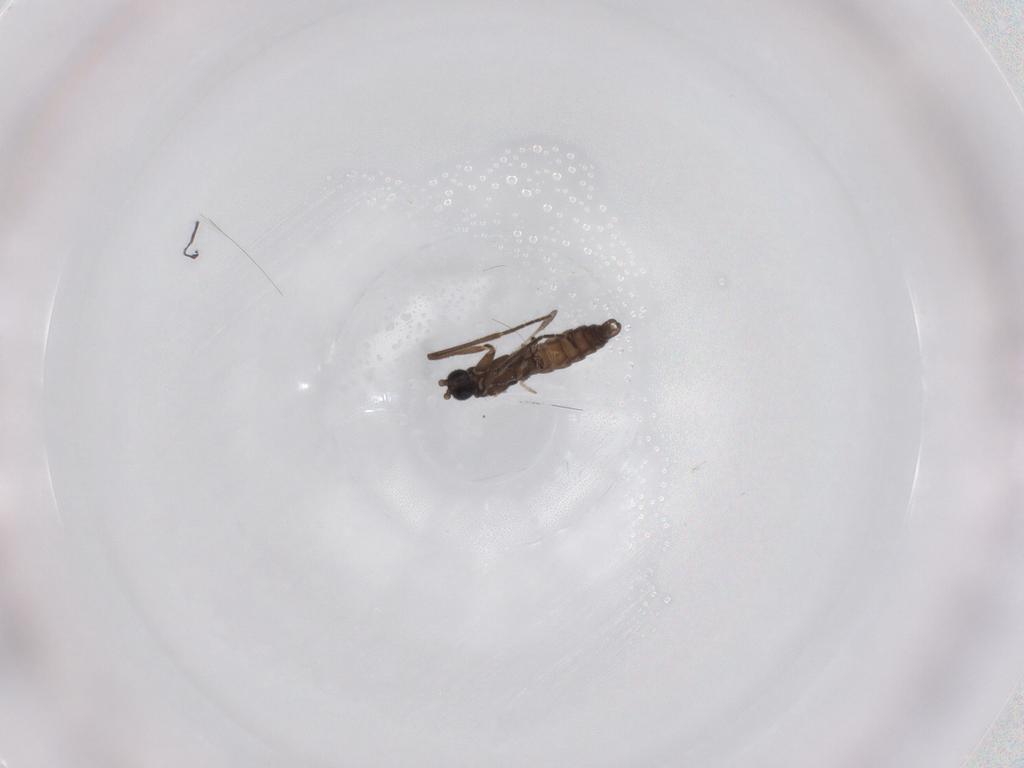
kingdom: Animalia
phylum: Arthropoda
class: Insecta
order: Diptera
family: Sciaridae
